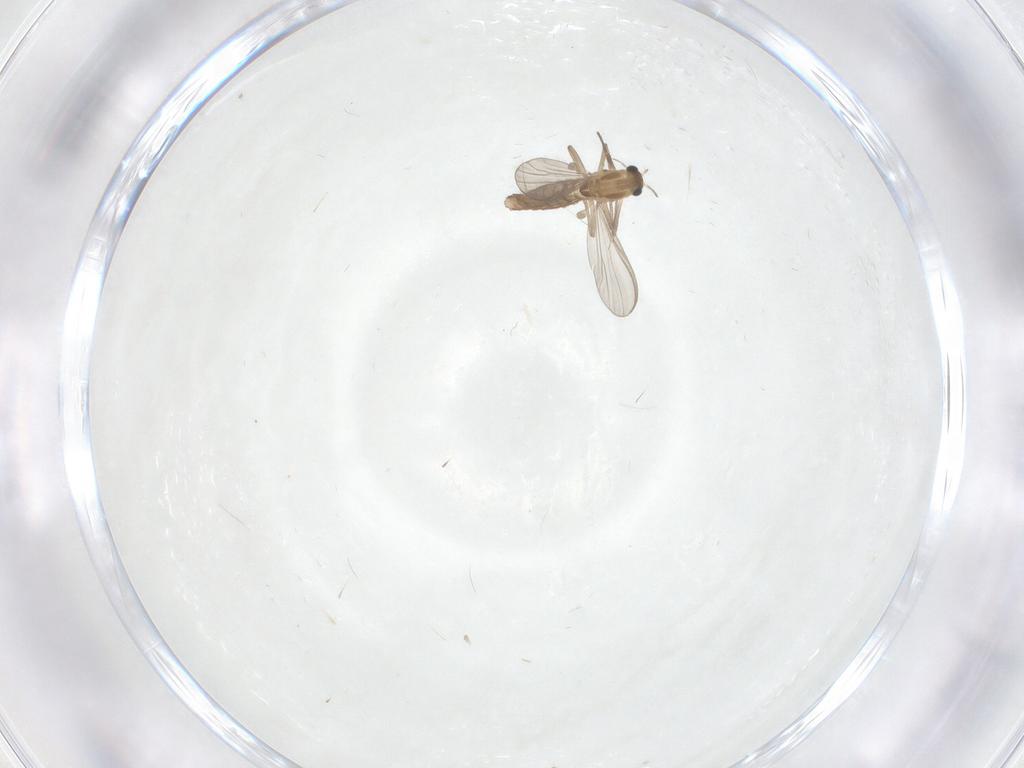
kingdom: Animalia
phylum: Arthropoda
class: Insecta
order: Diptera
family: Chironomidae
